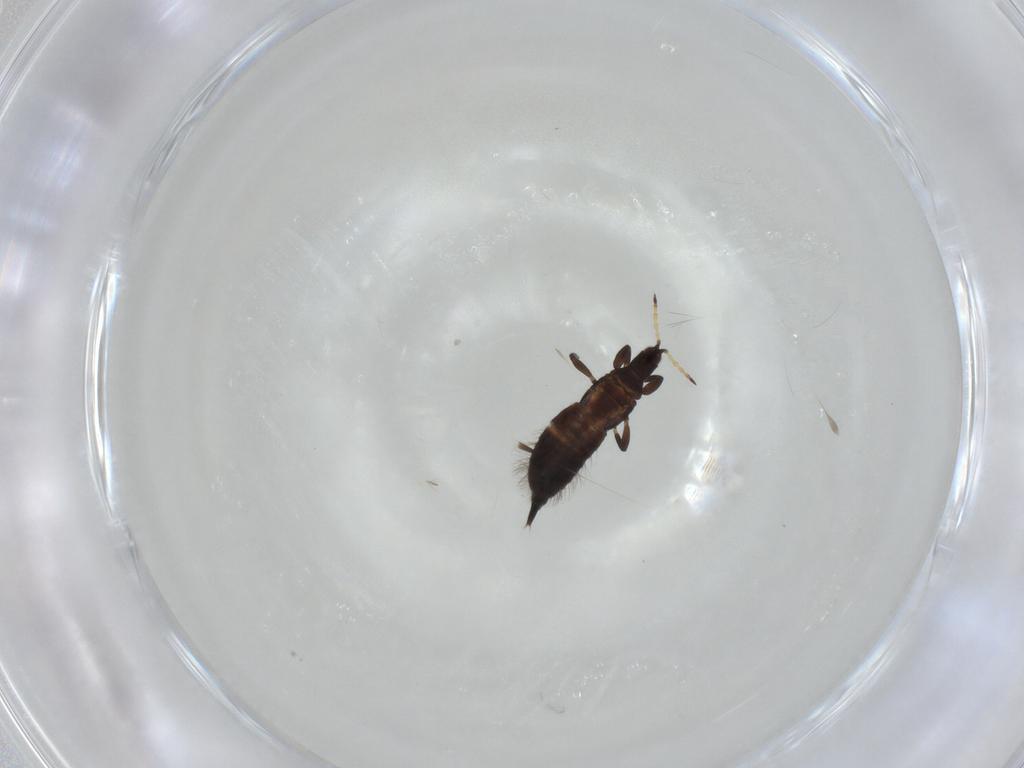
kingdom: Animalia
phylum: Arthropoda
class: Insecta
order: Thysanoptera
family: Phlaeothripidae
